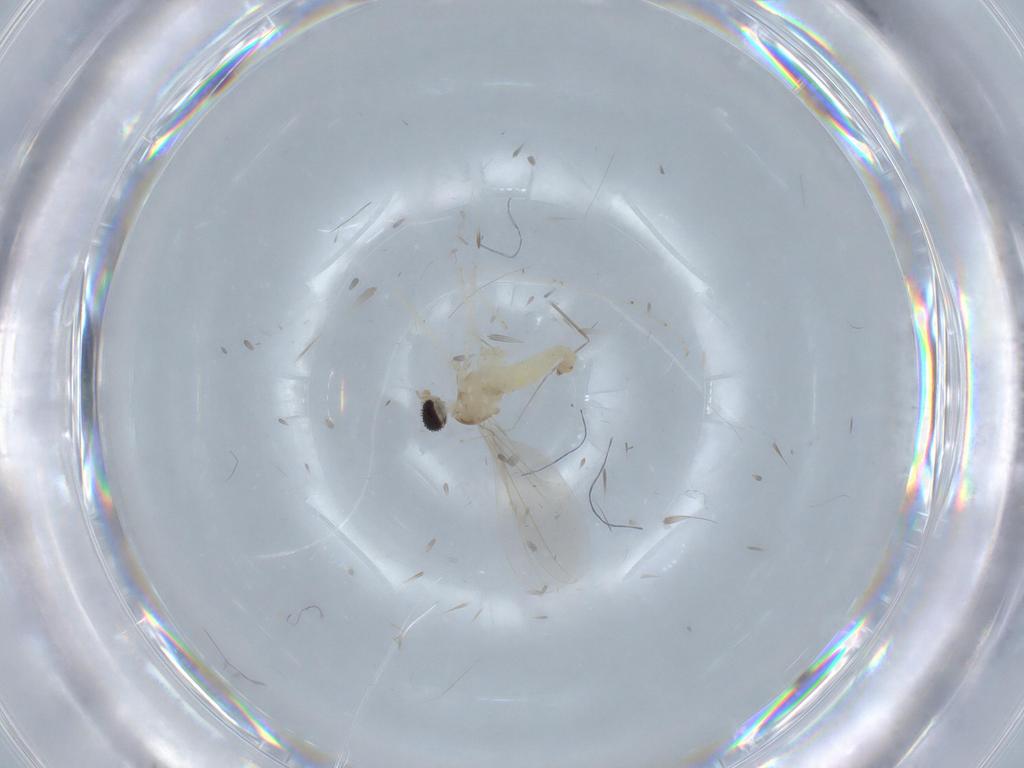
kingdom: Animalia
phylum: Arthropoda
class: Insecta
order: Diptera
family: Cecidomyiidae
